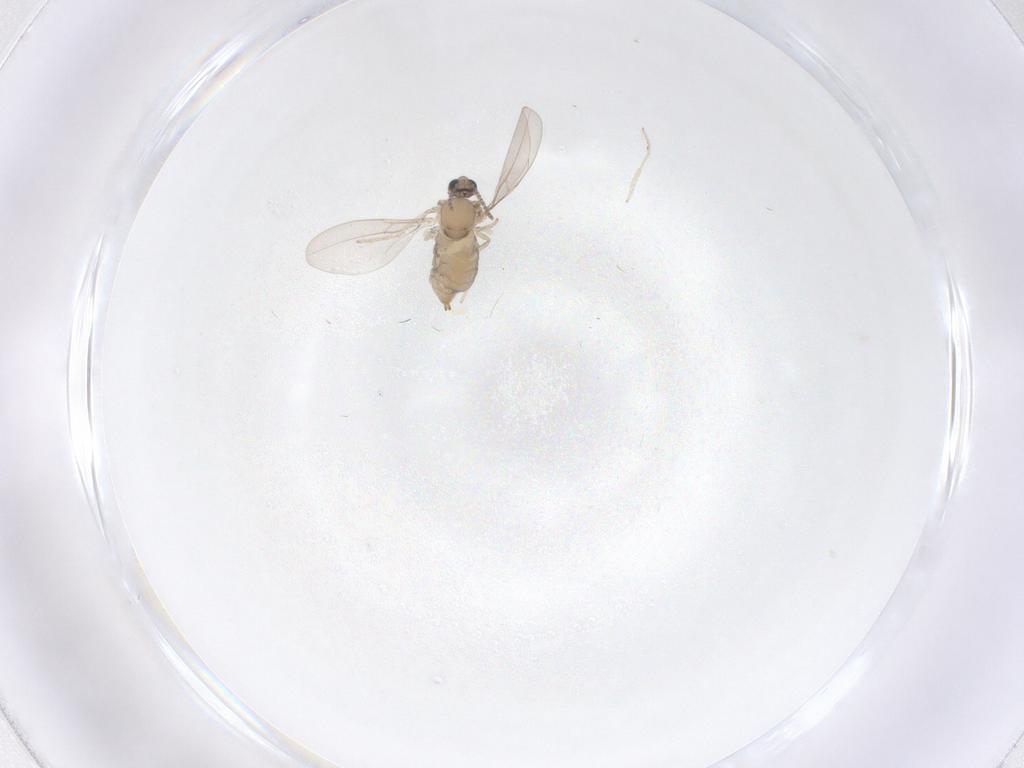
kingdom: Animalia
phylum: Arthropoda
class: Insecta
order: Diptera
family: Cecidomyiidae
